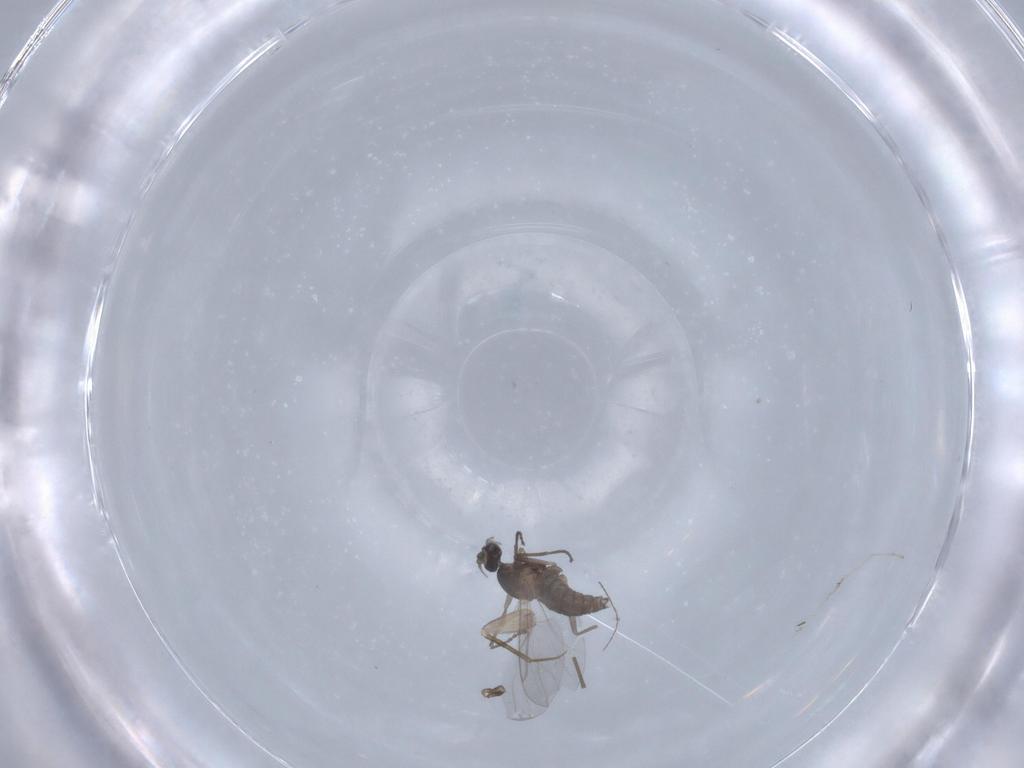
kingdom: Animalia
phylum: Arthropoda
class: Insecta
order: Diptera
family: Cecidomyiidae
